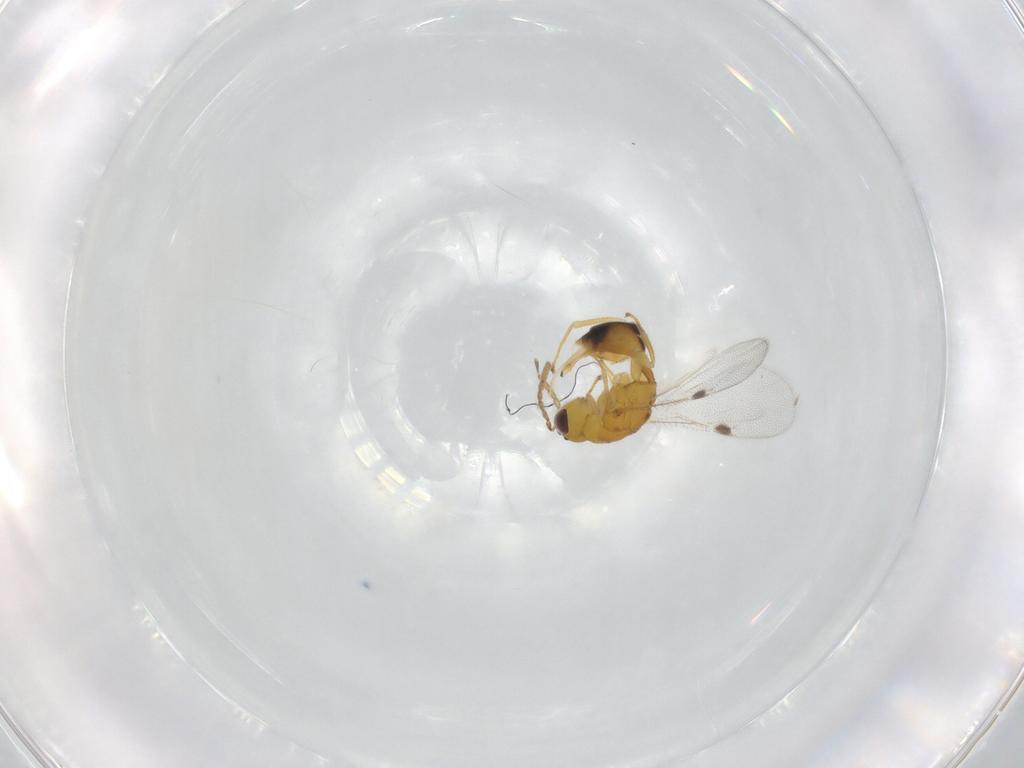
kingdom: Animalia
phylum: Arthropoda
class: Insecta
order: Hymenoptera
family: Eurytomidae
